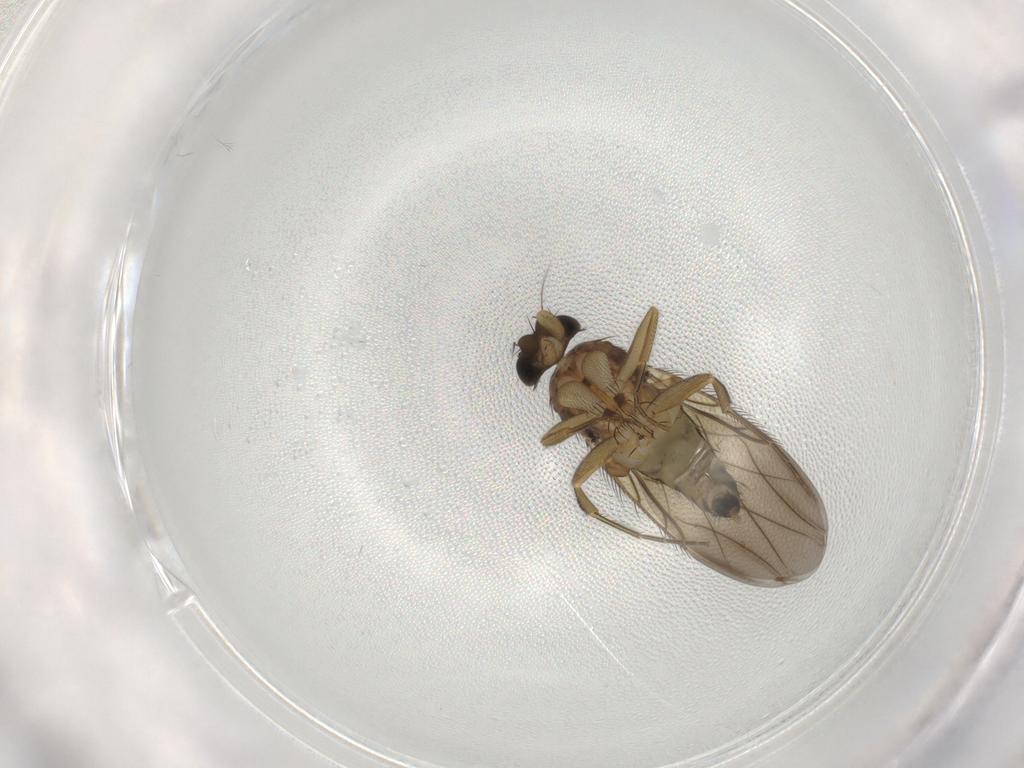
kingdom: Animalia
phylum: Arthropoda
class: Insecta
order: Diptera
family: Phoridae
